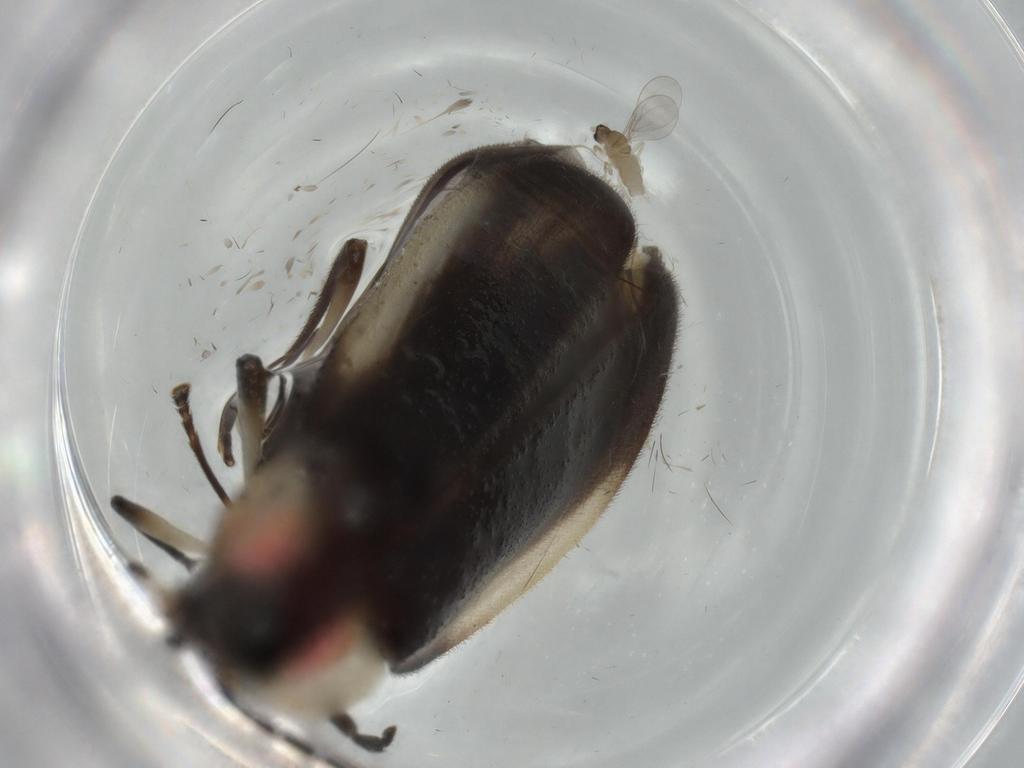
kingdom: Animalia
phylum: Arthropoda
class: Insecta
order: Coleoptera
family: Lampyridae
